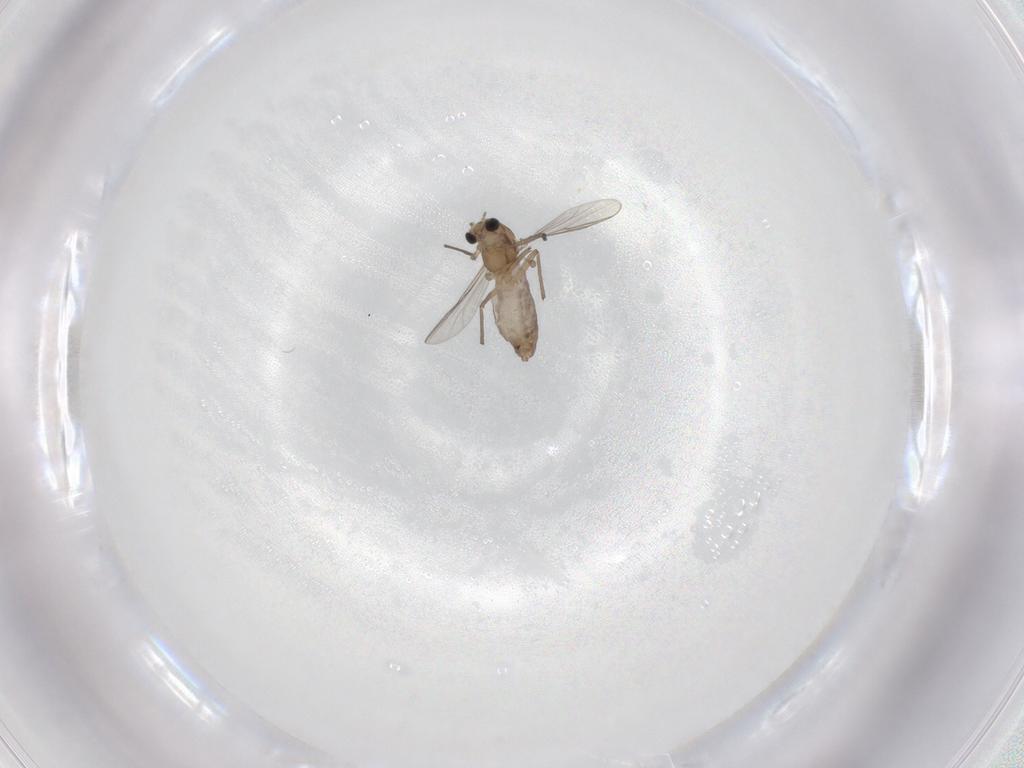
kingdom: Animalia
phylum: Arthropoda
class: Insecta
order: Diptera
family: Chironomidae
